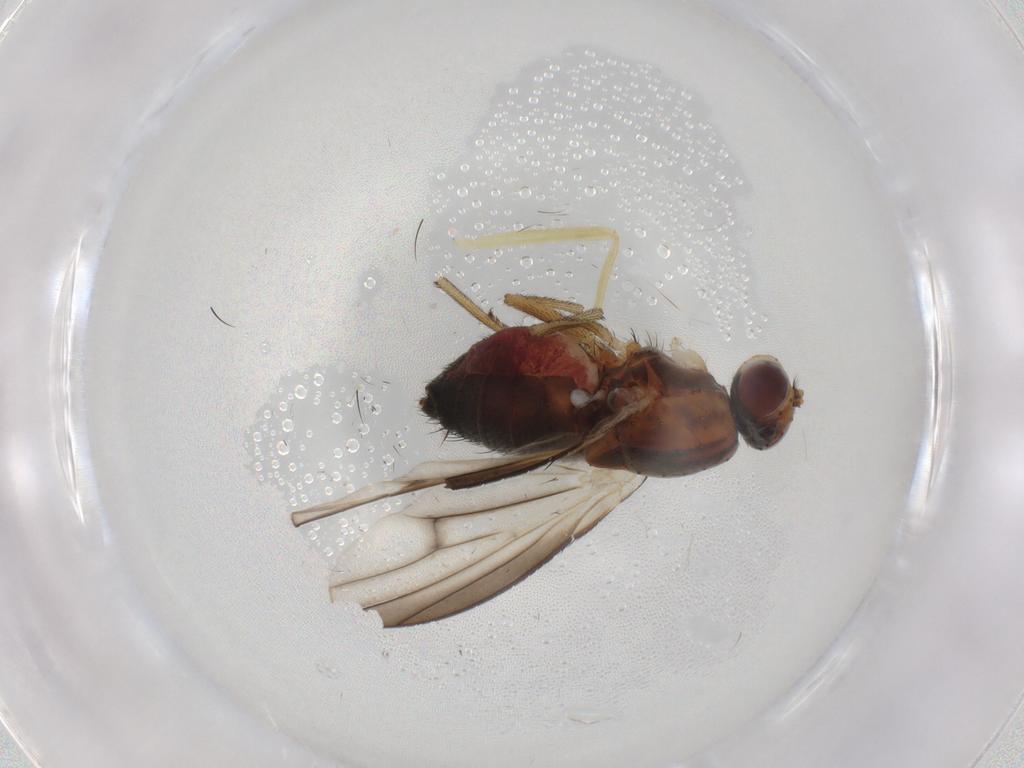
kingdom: Animalia
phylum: Arthropoda
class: Insecta
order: Diptera
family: Heleomyzidae
